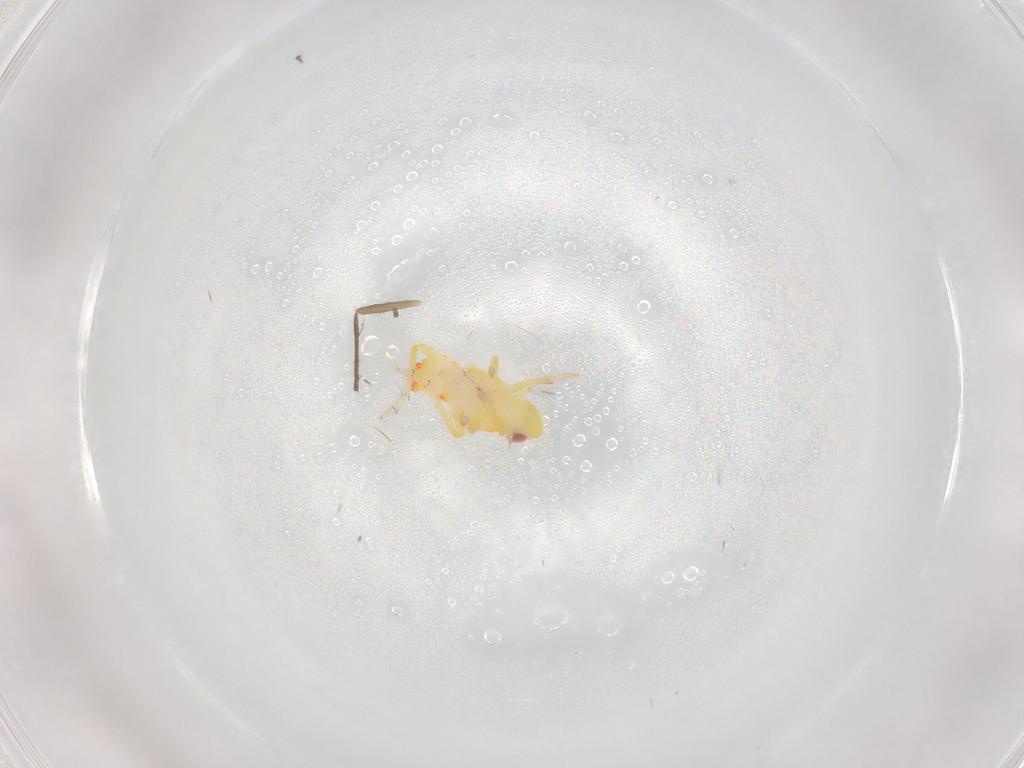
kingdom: Animalia
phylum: Arthropoda
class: Insecta
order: Hemiptera
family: Tropiduchidae
